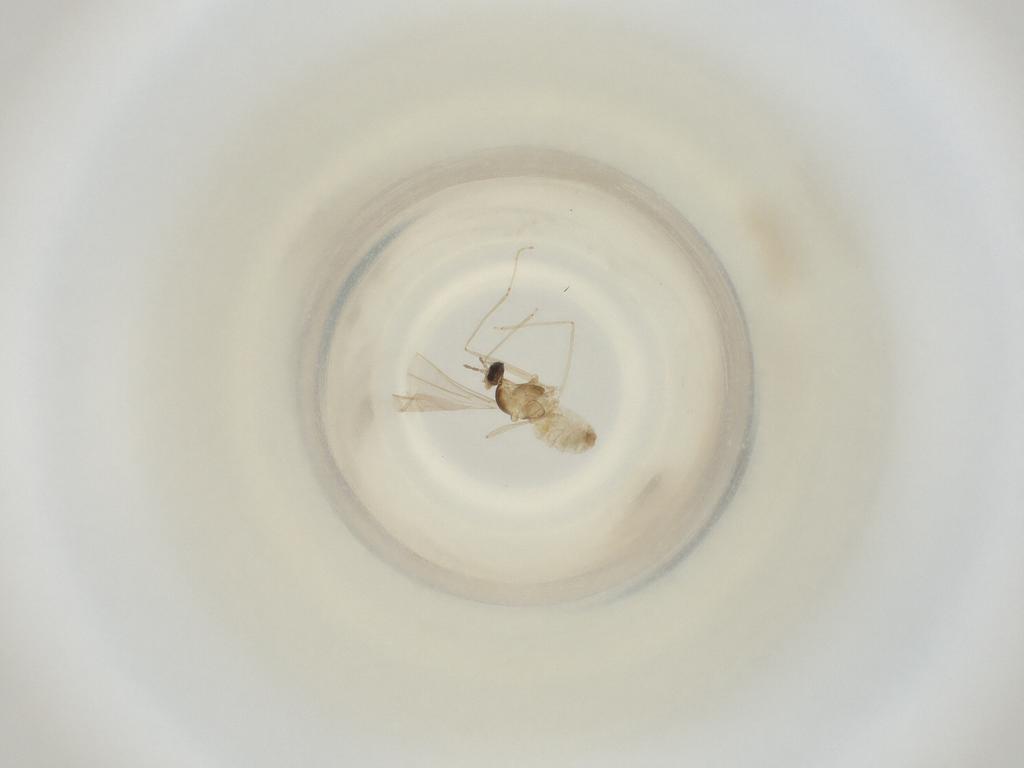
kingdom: Animalia
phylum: Arthropoda
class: Insecta
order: Diptera
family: Cecidomyiidae
